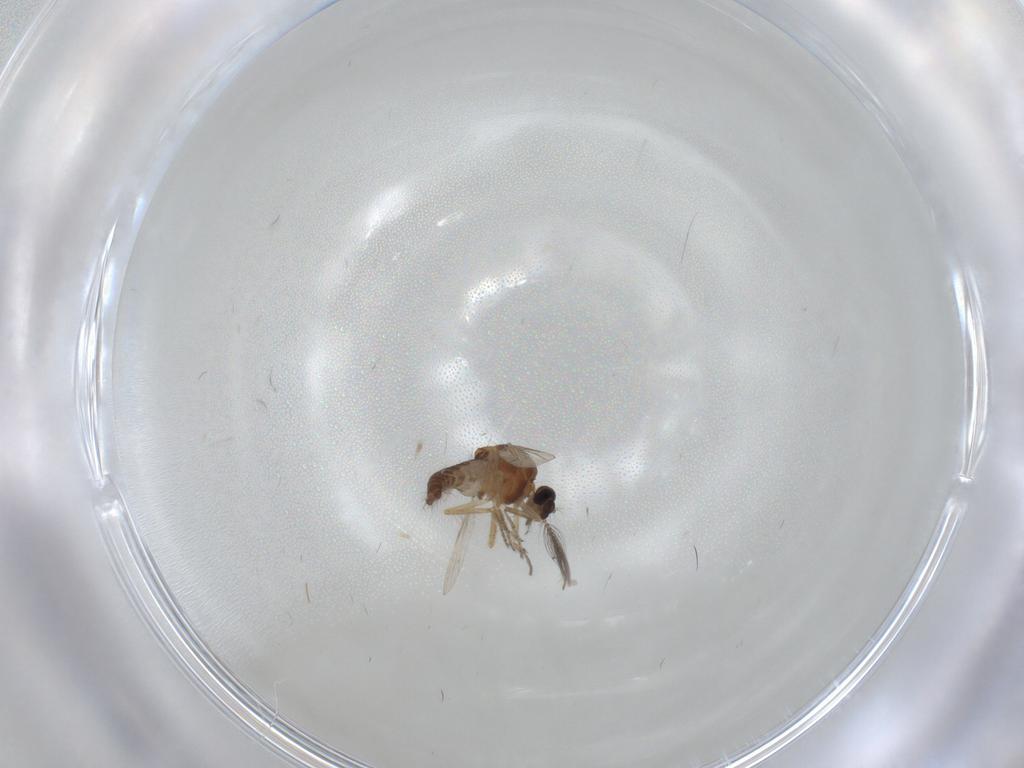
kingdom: Animalia
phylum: Arthropoda
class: Insecta
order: Diptera
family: Ceratopogonidae
